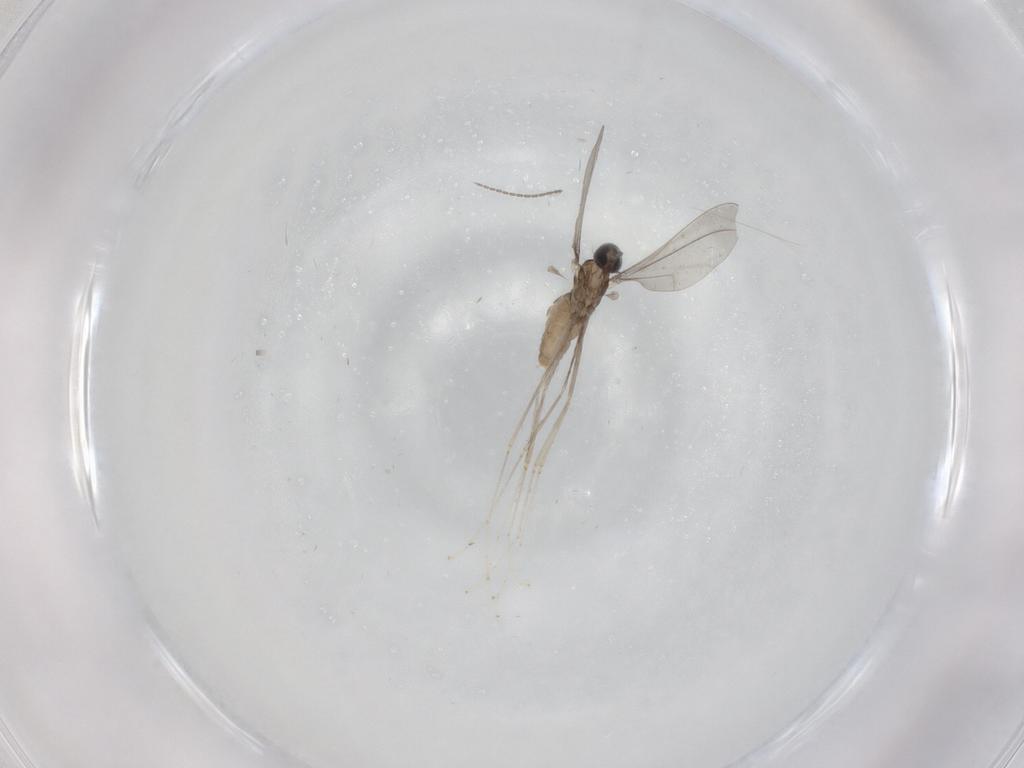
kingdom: Animalia
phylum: Arthropoda
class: Insecta
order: Diptera
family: Cecidomyiidae
